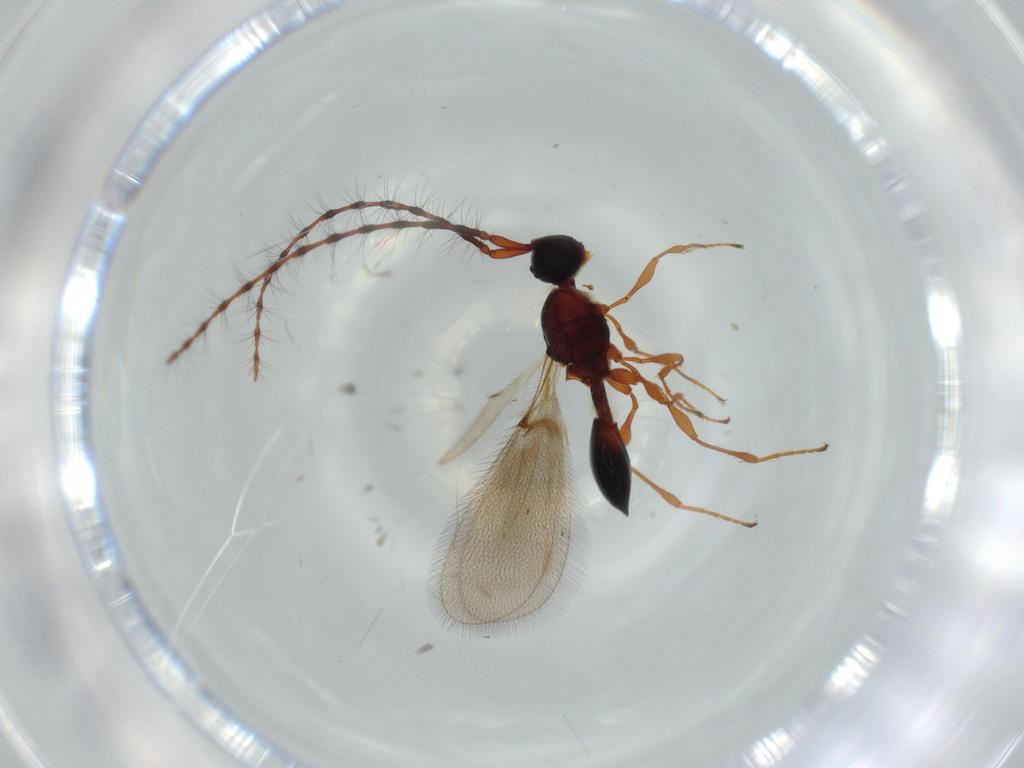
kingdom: Animalia
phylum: Arthropoda
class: Insecta
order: Hymenoptera
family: Diapriidae
